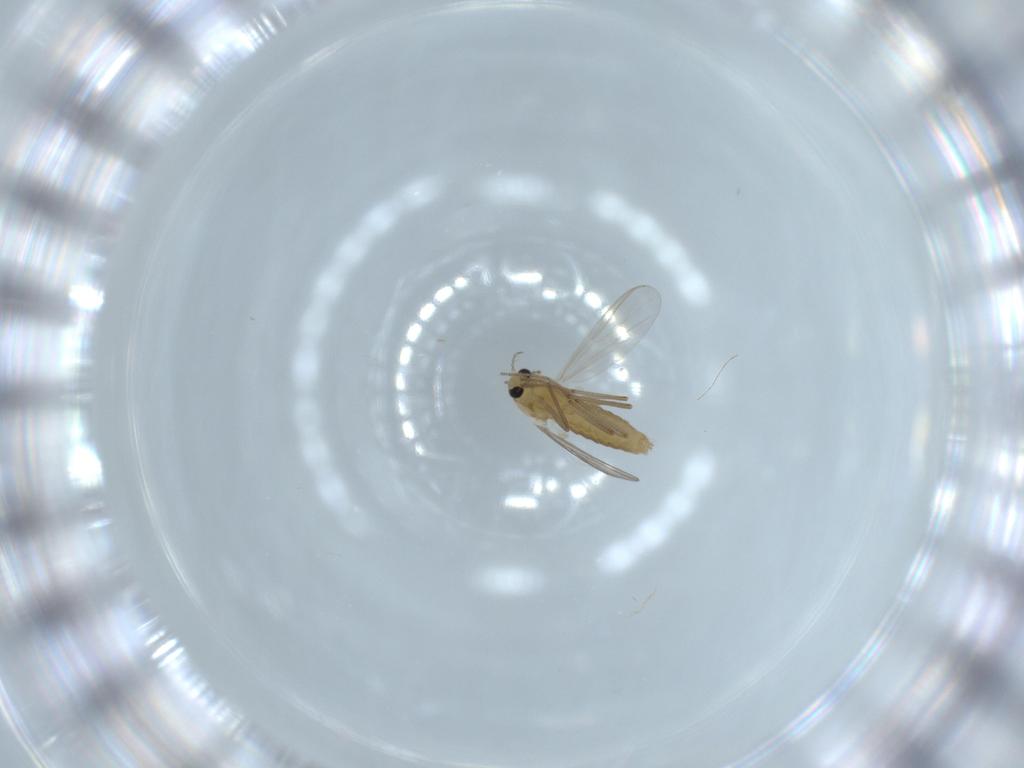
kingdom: Animalia
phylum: Arthropoda
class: Insecta
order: Diptera
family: Chironomidae
